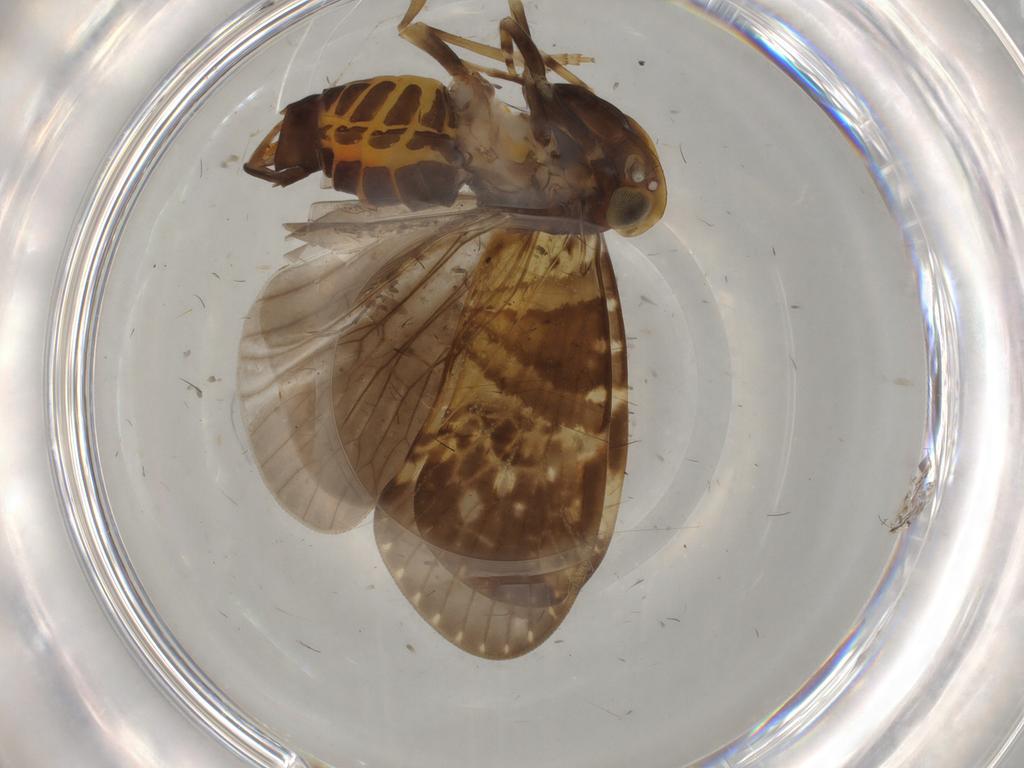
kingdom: Animalia
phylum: Arthropoda
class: Insecta
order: Hemiptera
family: Cixiidae
